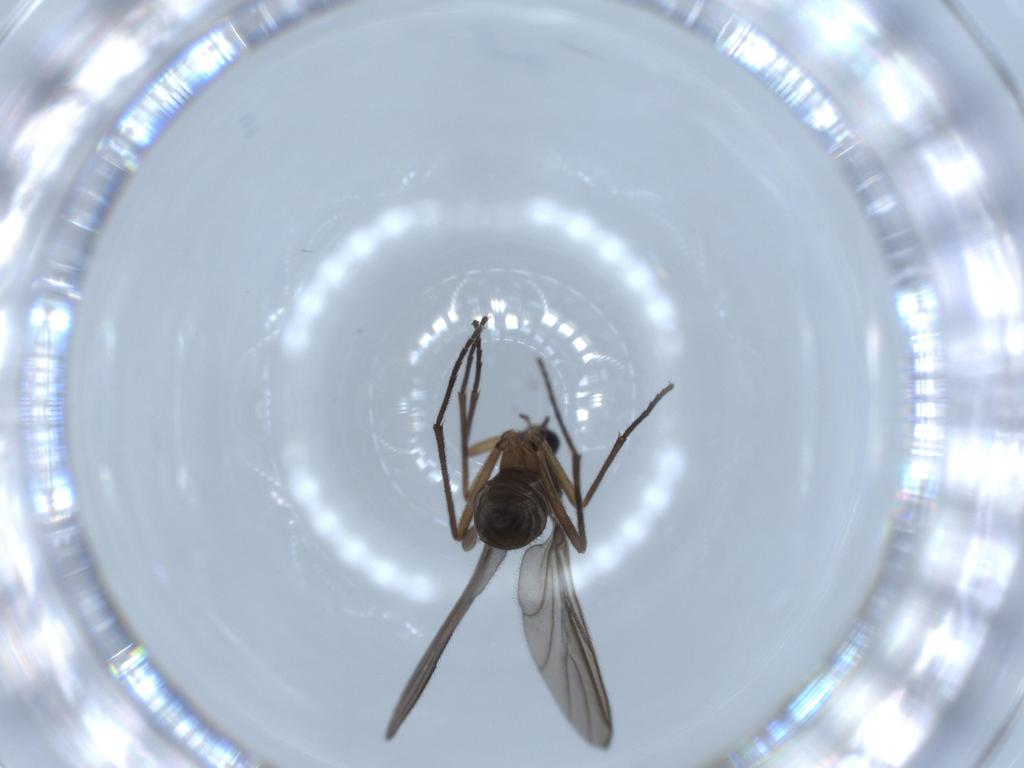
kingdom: Animalia
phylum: Arthropoda
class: Insecta
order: Diptera
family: Sciaridae
